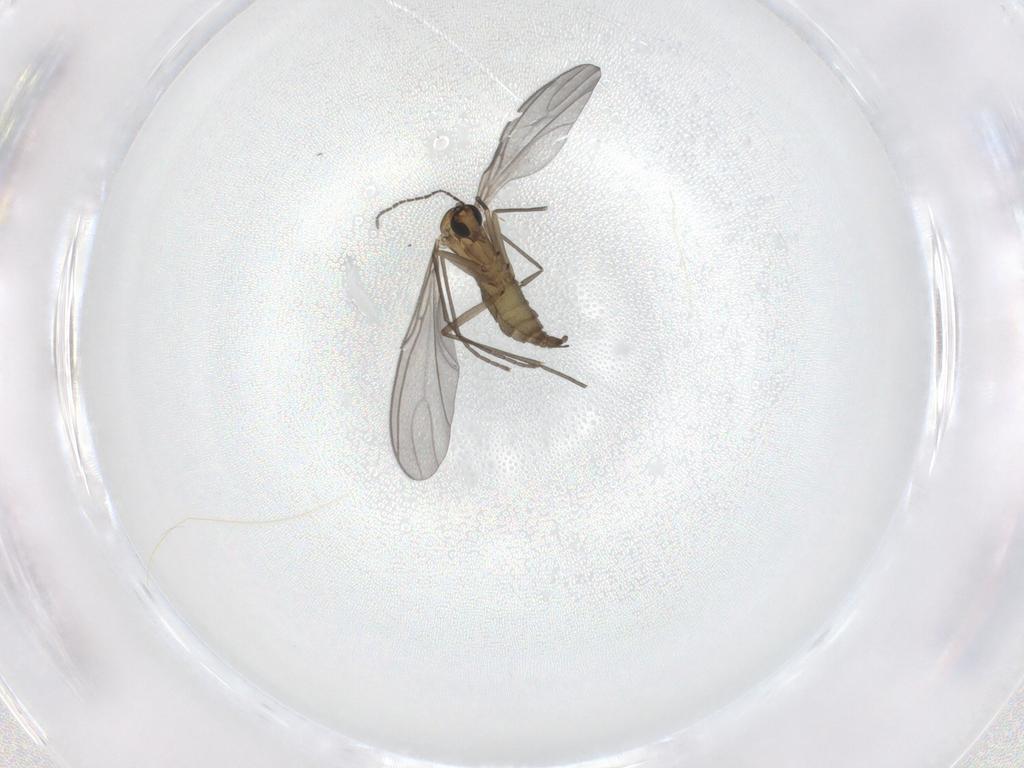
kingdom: Animalia
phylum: Arthropoda
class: Insecta
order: Diptera
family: Sciaridae
